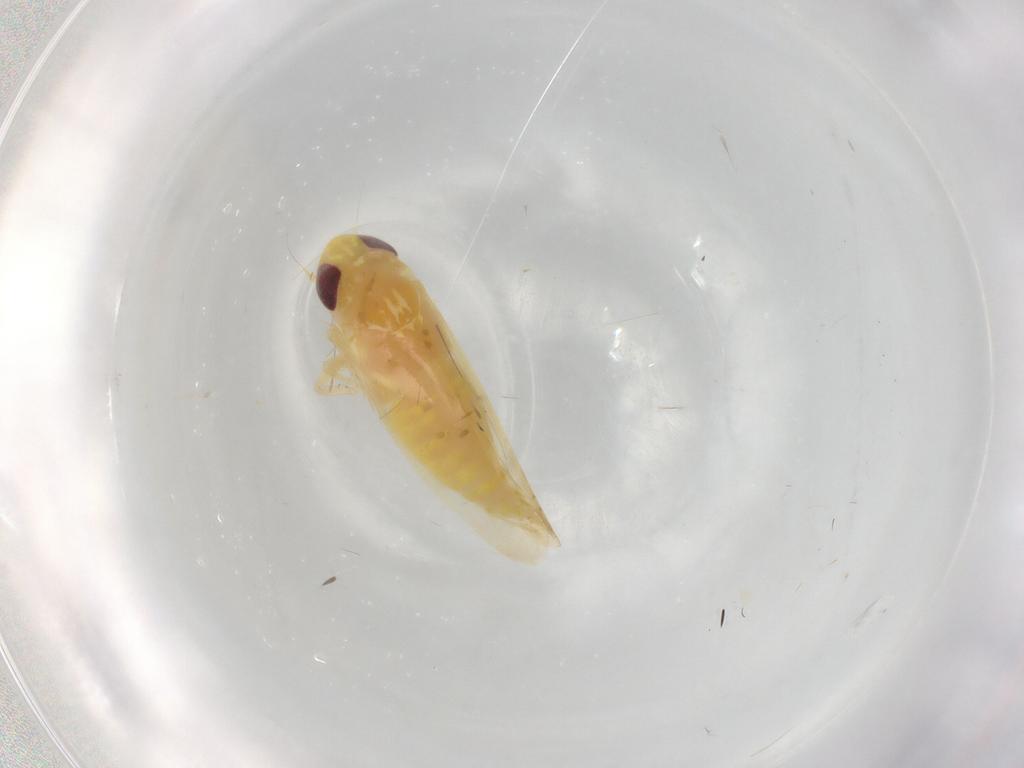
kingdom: Animalia
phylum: Arthropoda
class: Insecta
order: Hemiptera
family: Cicadellidae
